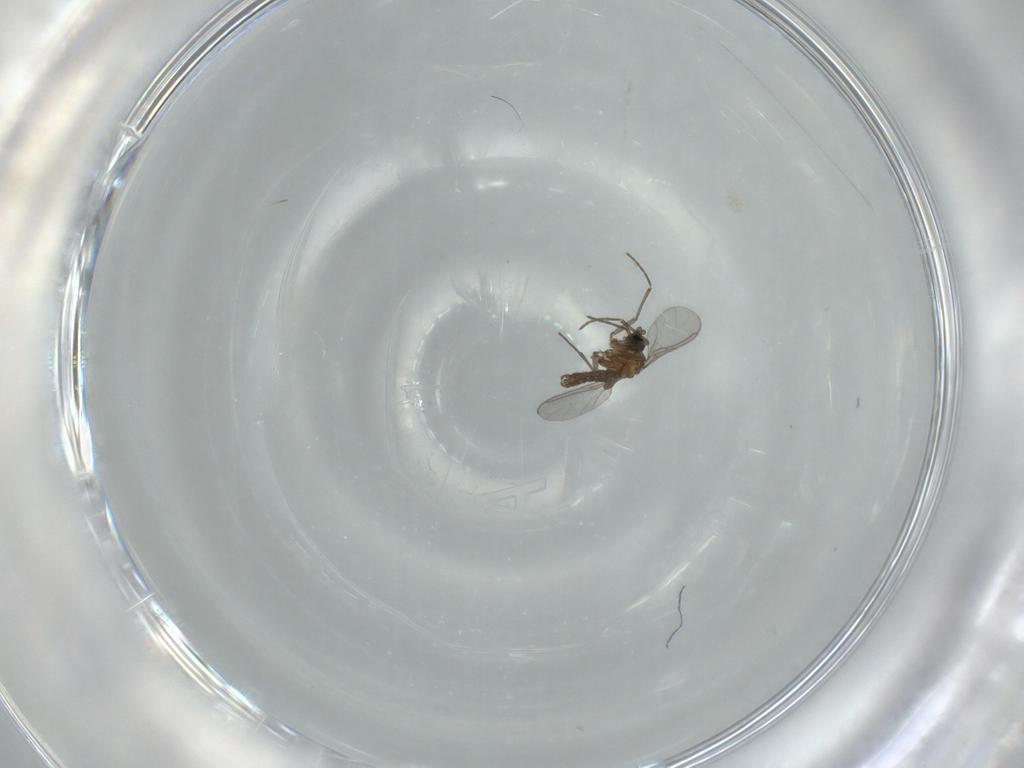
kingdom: Animalia
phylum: Arthropoda
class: Insecta
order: Diptera
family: Sciaridae
